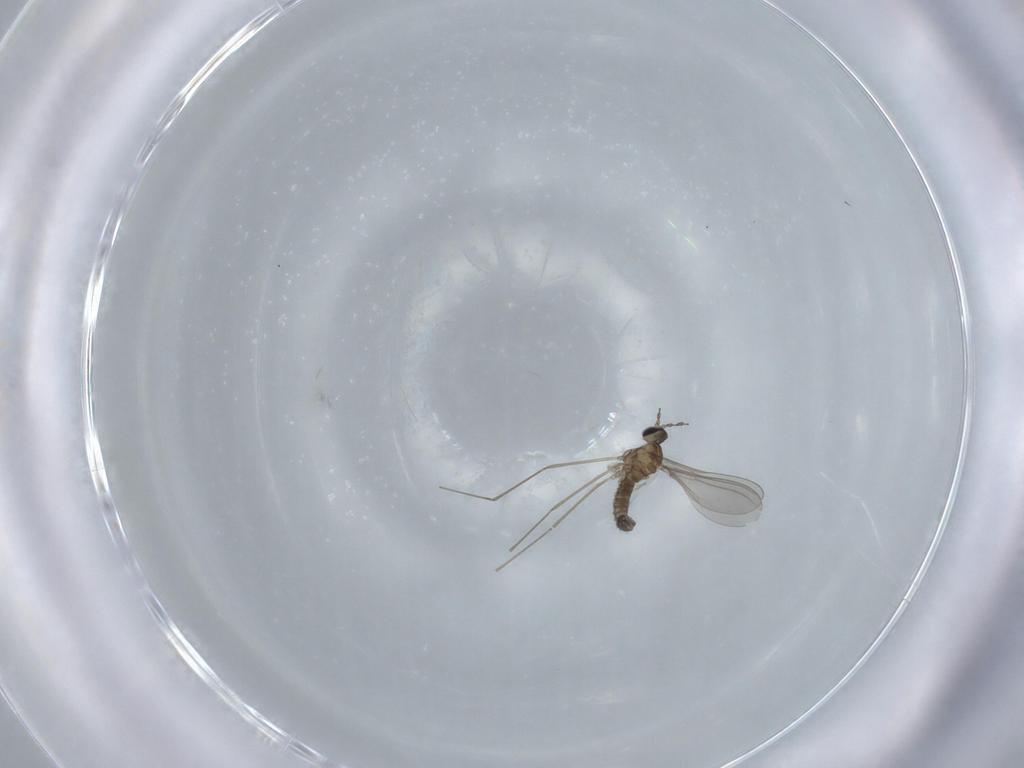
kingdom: Animalia
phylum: Arthropoda
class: Insecta
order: Diptera
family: Cecidomyiidae
